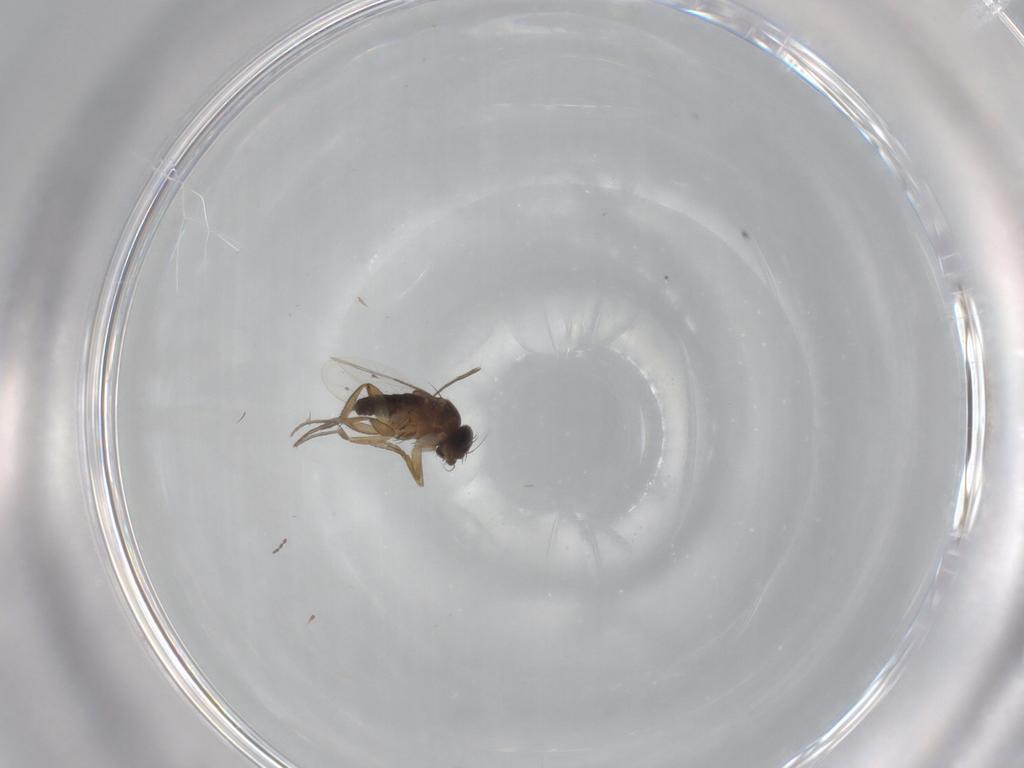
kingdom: Animalia
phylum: Arthropoda
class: Insecta
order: Diptera
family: Phoridae
